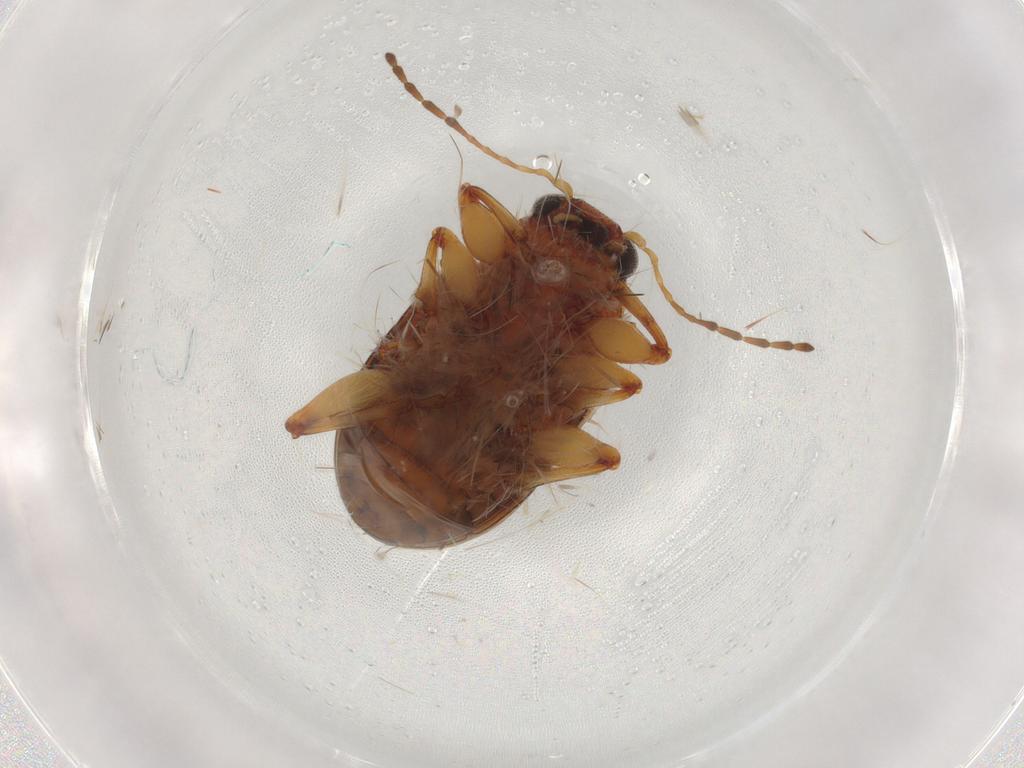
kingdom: Animalia
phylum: Arthropoda
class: Insecta
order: Coleoptera
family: Chrysomelidae
